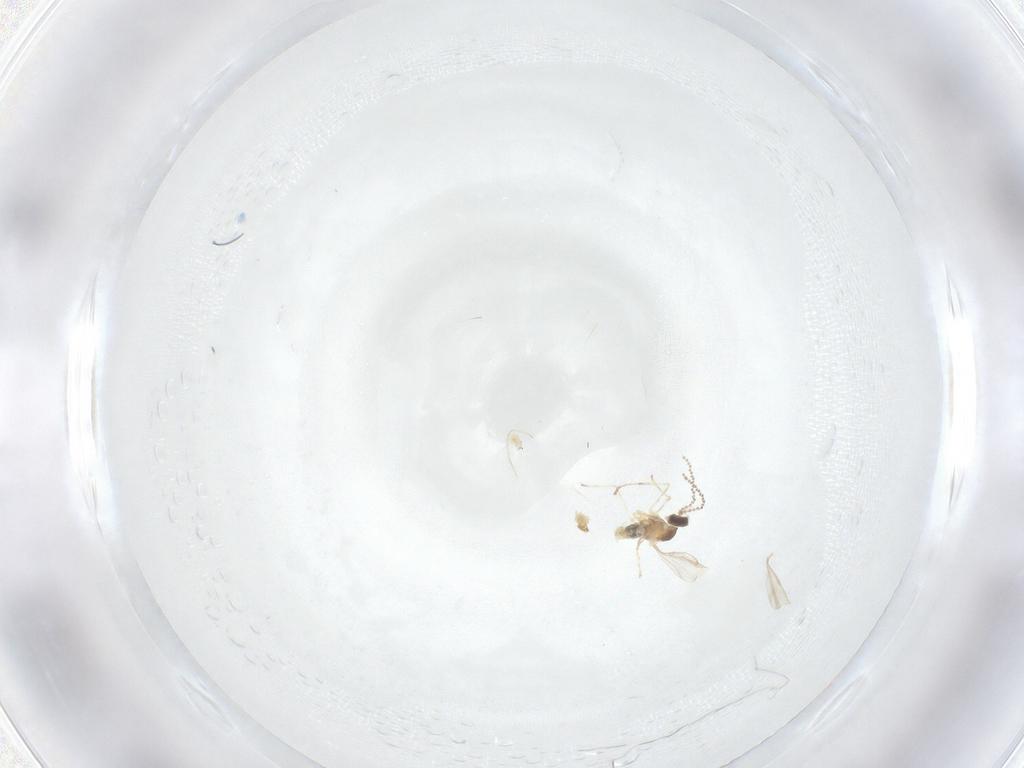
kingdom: Animalia
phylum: Arthropoda
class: Insecta
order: Diptera
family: Cecidomyiidae
